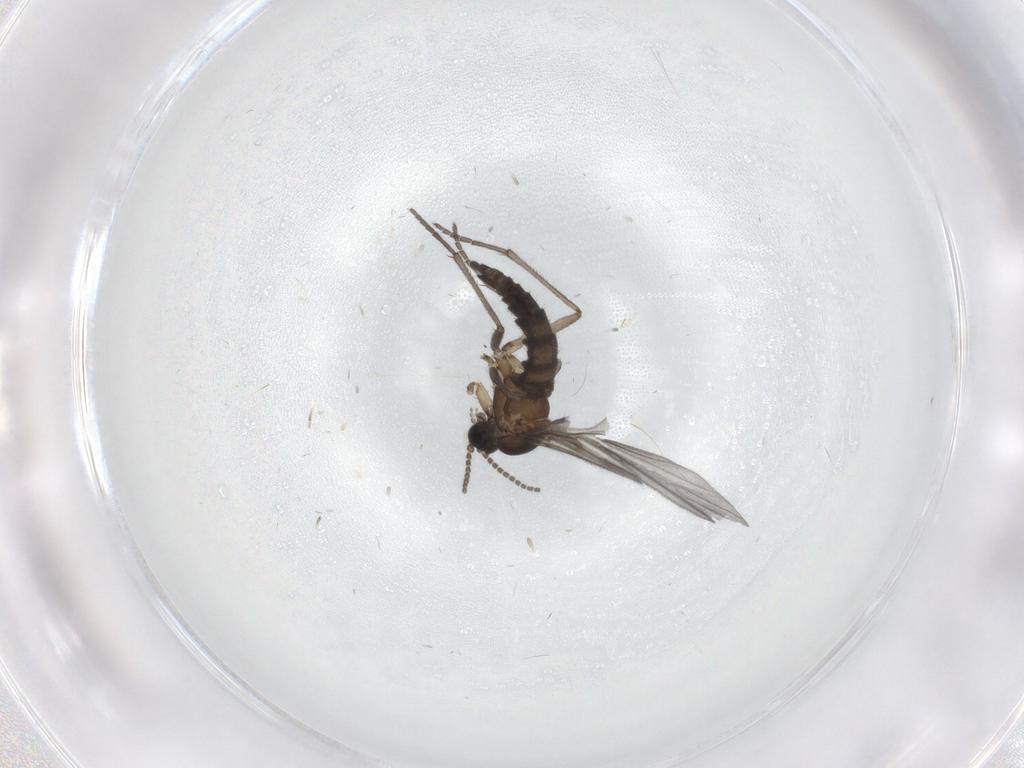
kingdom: Animalia
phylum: Arthropoda
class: Insecta
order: Diptera
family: Sciaridae
